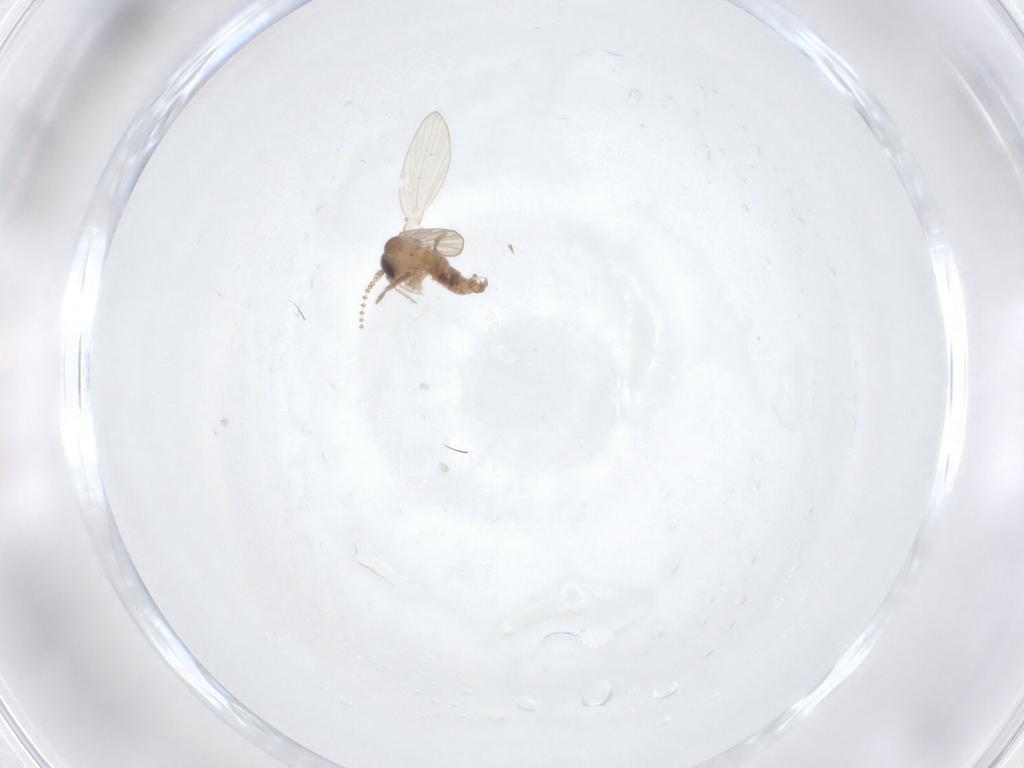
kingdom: Animalia
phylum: Arthropoda
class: Insecta
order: Diptera
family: Psychodidae
